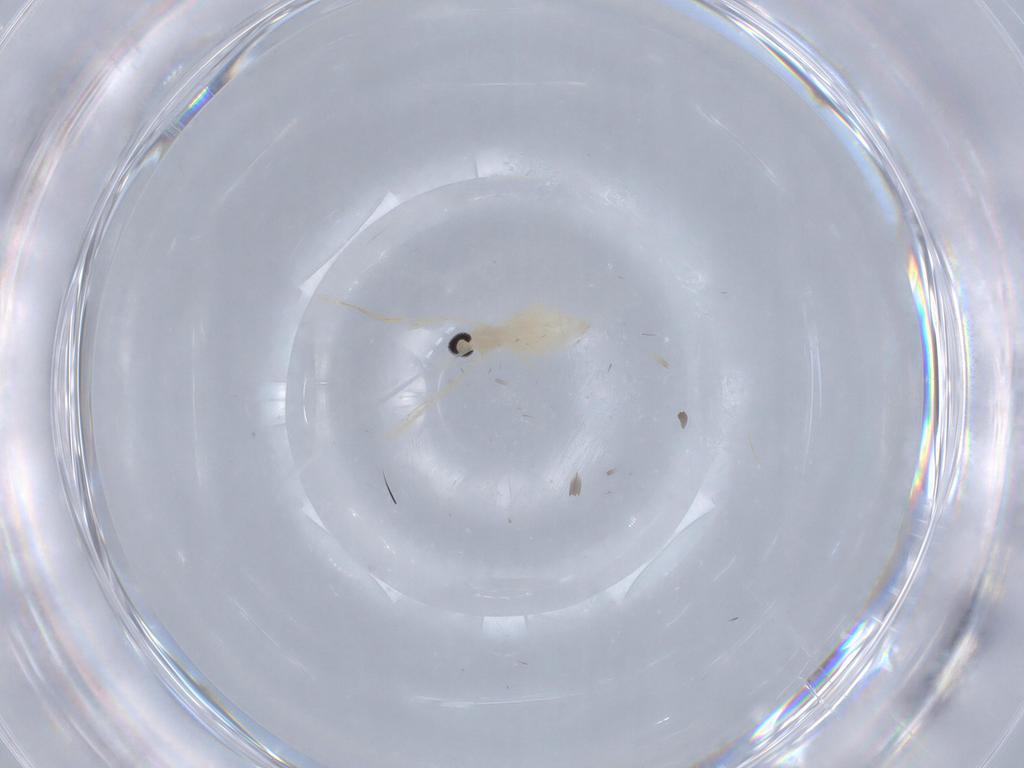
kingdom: Animalia
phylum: Arthropoda
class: Insecta
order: Diptera
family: Cecidomyiidae
